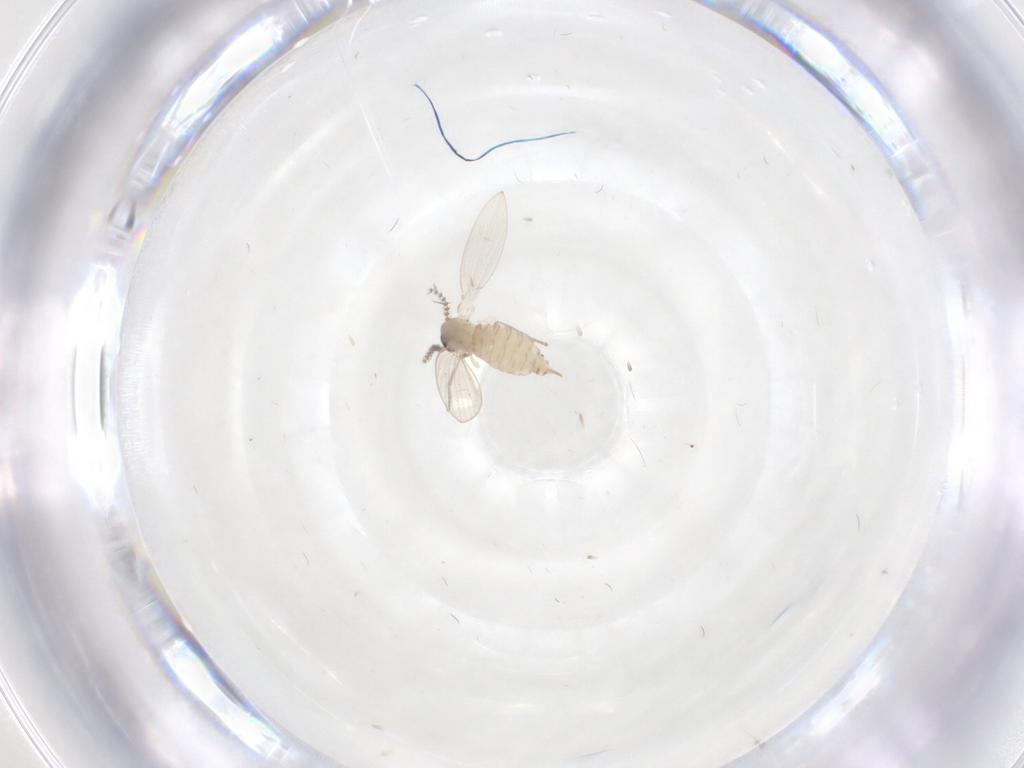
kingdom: Animalia
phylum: Arthropoda
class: Insecta
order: Diptera
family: Psychodidae
